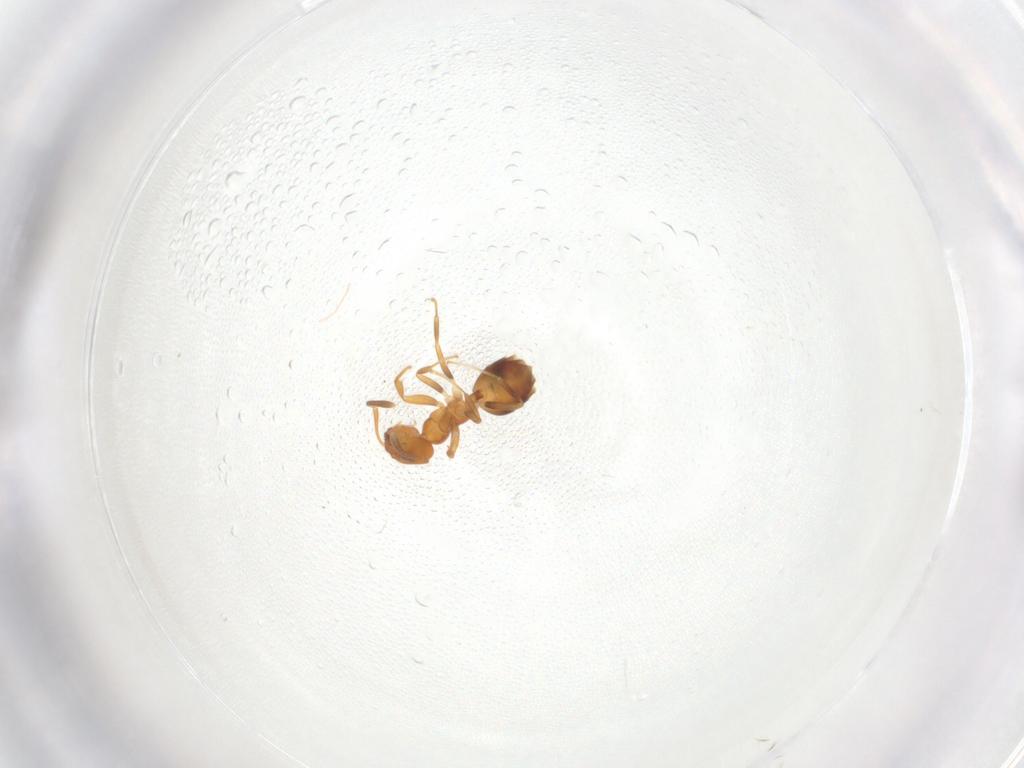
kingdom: Animalia
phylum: Arthropoda
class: Insecta
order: Hymenoptera
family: Formicidae
